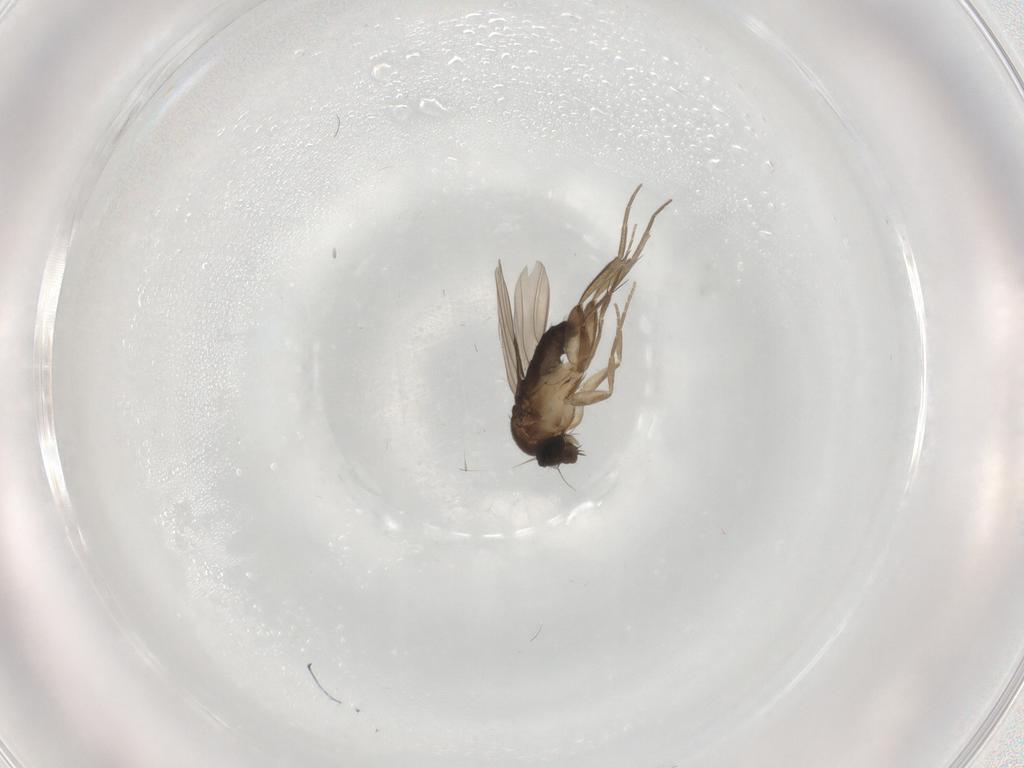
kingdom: Animalia
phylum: Arthropoda
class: Insecta
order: Diptera
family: Phoridae
